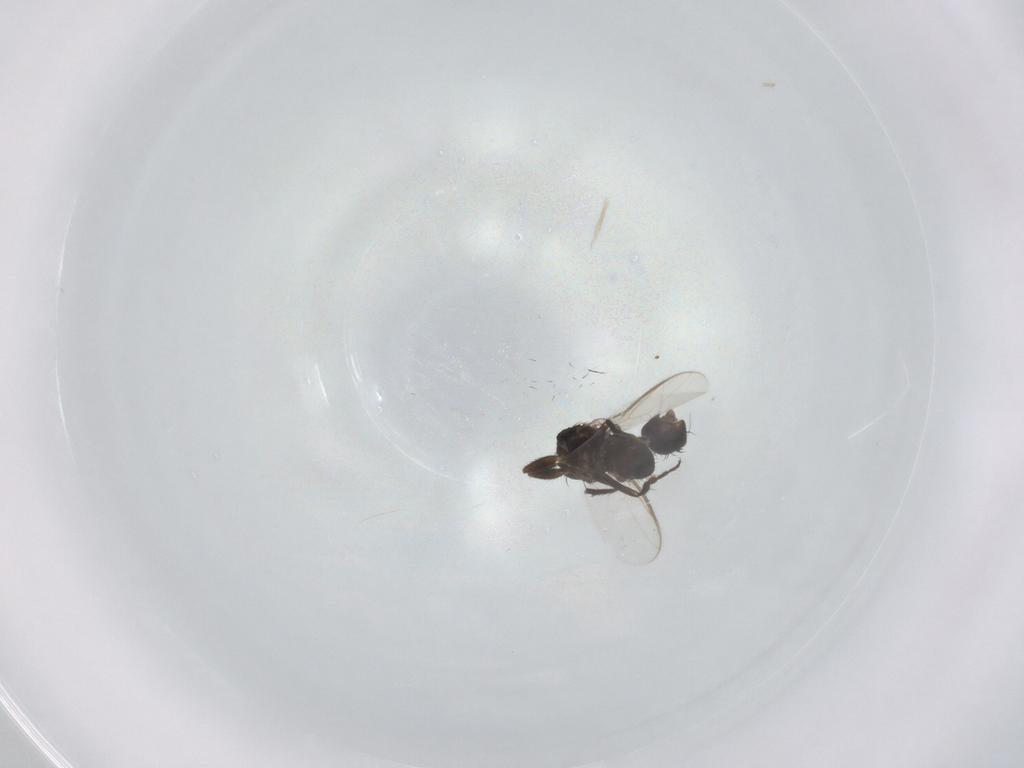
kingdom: Animalia
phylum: Arthropoda
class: Insecta
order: Diptera
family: Sphaeroceridae
